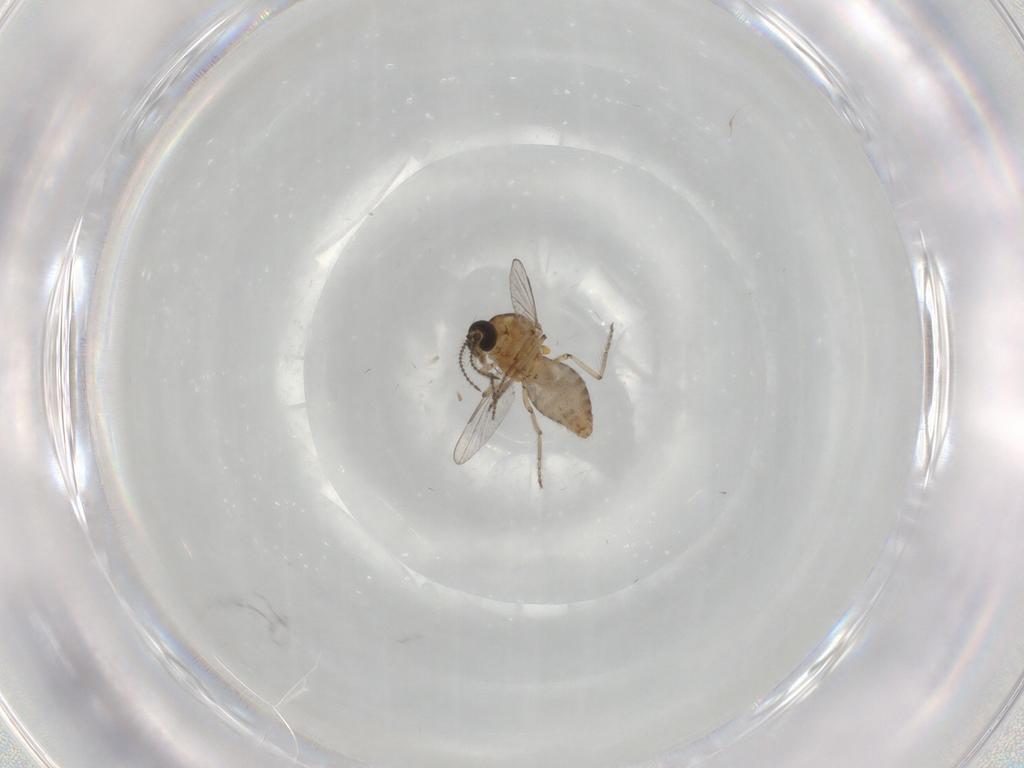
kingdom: Animalia
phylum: Arthropoda
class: Insecta
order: Diptera
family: Ceratopogonidae
